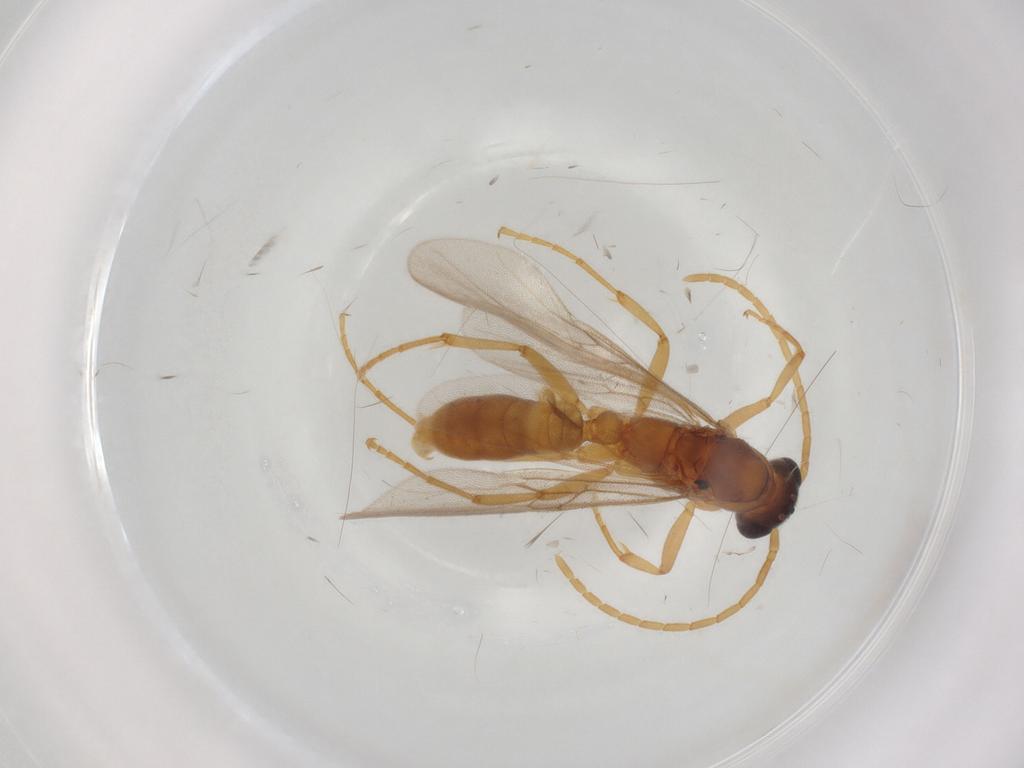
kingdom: Animalia
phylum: Arthropoda
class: Insecta
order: Hymenoptera
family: Formicidae
